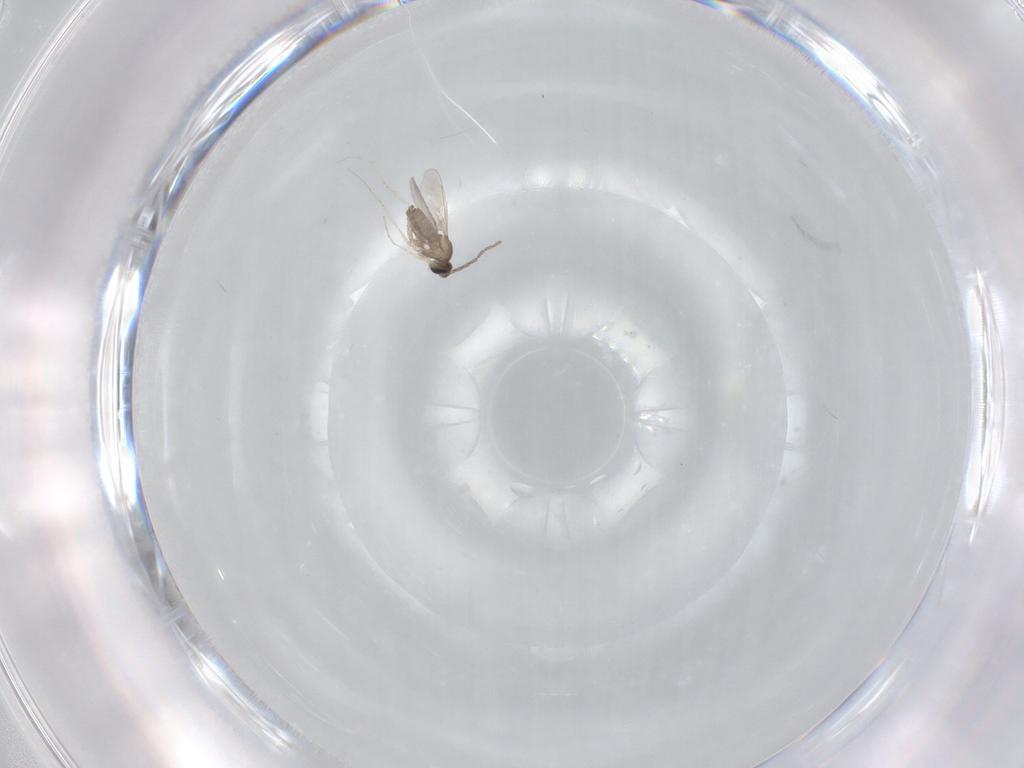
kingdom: Animalia
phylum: Arthropoda
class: Insecta
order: Diptera
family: Cecidomyiidae
